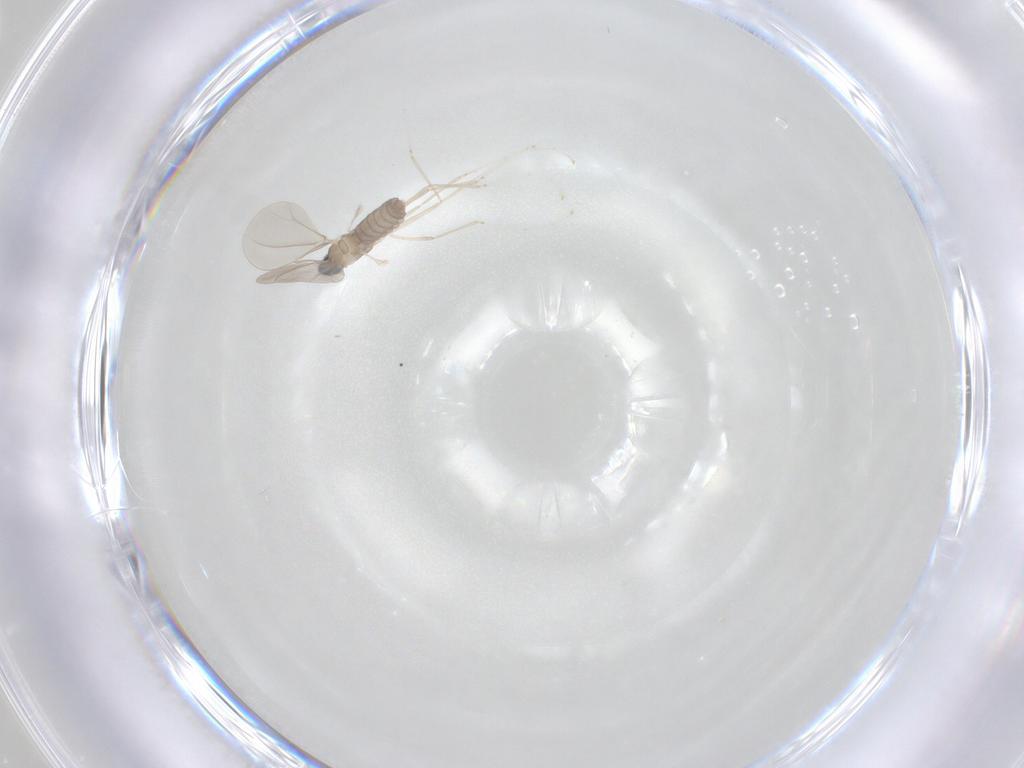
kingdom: Animalia
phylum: Arthropoda
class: Insecta
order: Diptera
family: Cecidomyiidae
